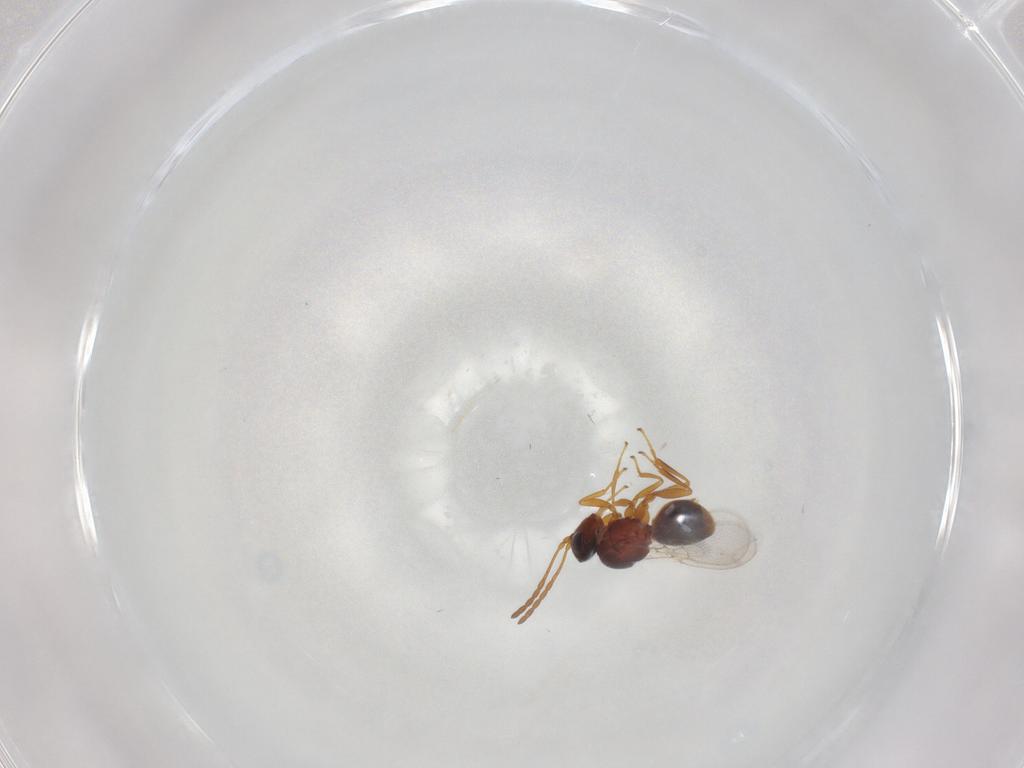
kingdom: Animalia
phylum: Arthropoda
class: Insecta
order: Hymenoptera
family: Figitidae
